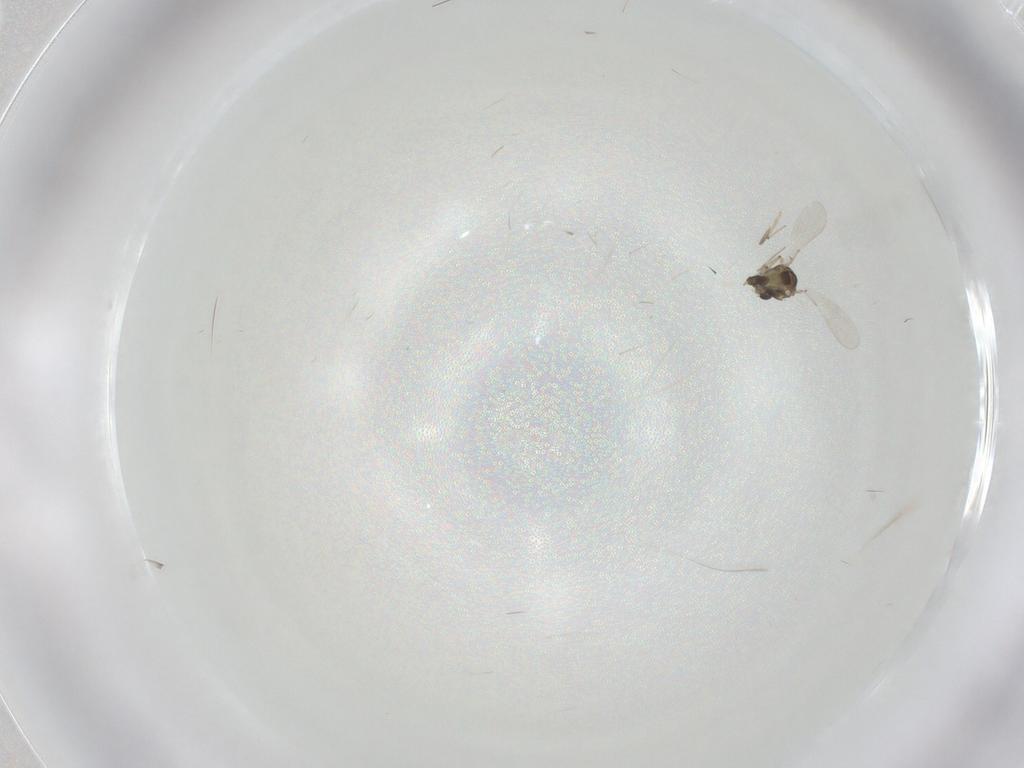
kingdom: Animalia
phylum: Arthropoda
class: Insecta
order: Diptera
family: Chironomidae
